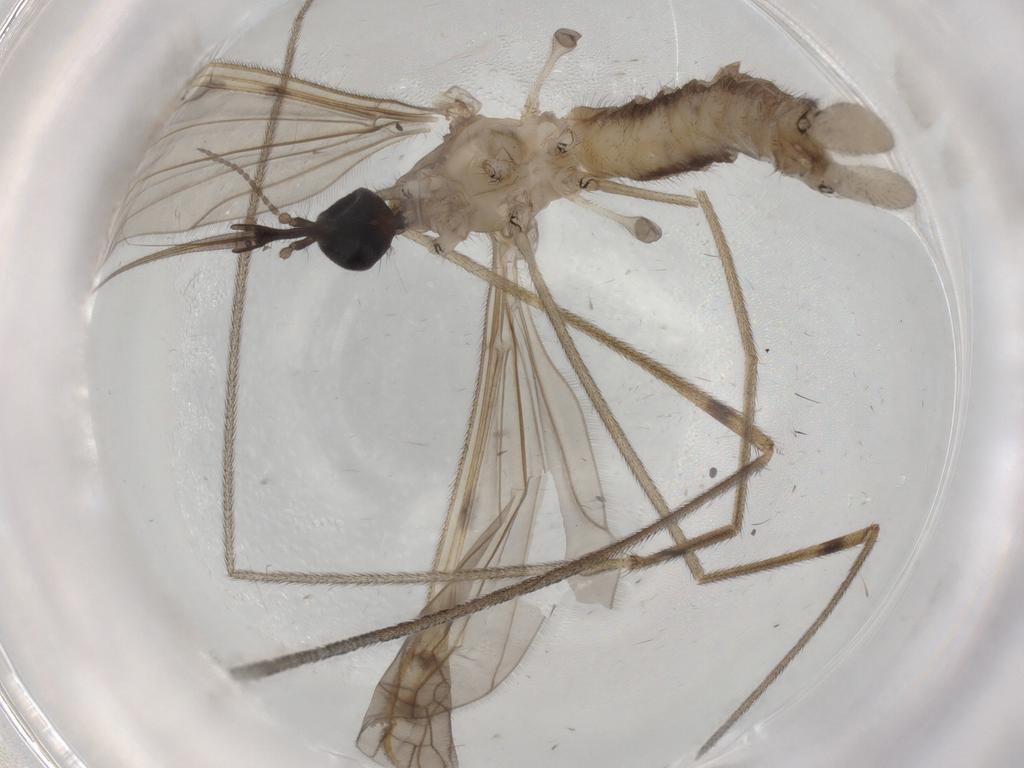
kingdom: Animalia
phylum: Arthropoda
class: Insecta
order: Diptera
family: Limoniidae
